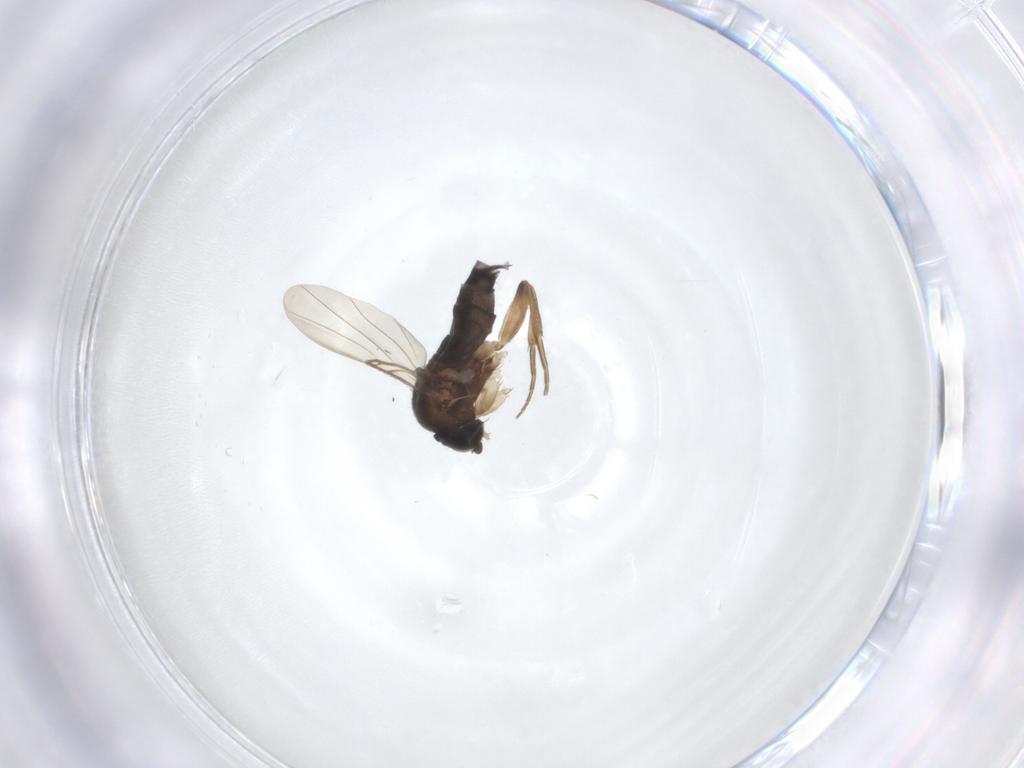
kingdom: Animalia
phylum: Arthropoda
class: Insecta
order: Diptera
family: Phoridae
